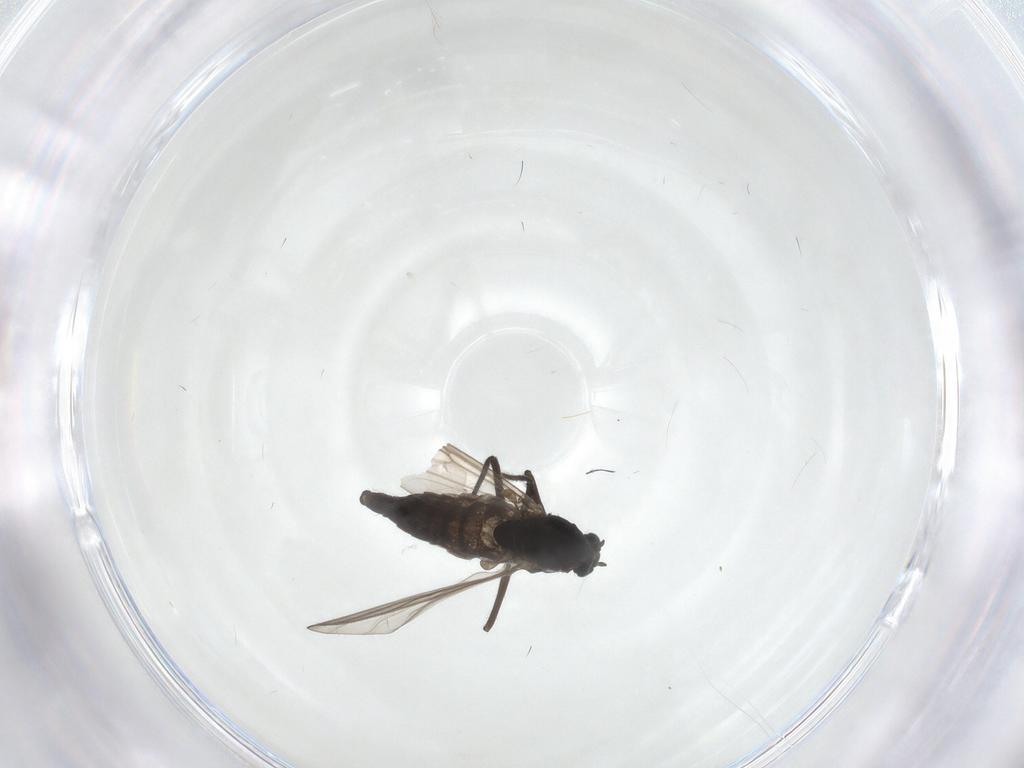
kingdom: Animalia
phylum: Arthropoda
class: Insecta
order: Diptera
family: Chironomidae
